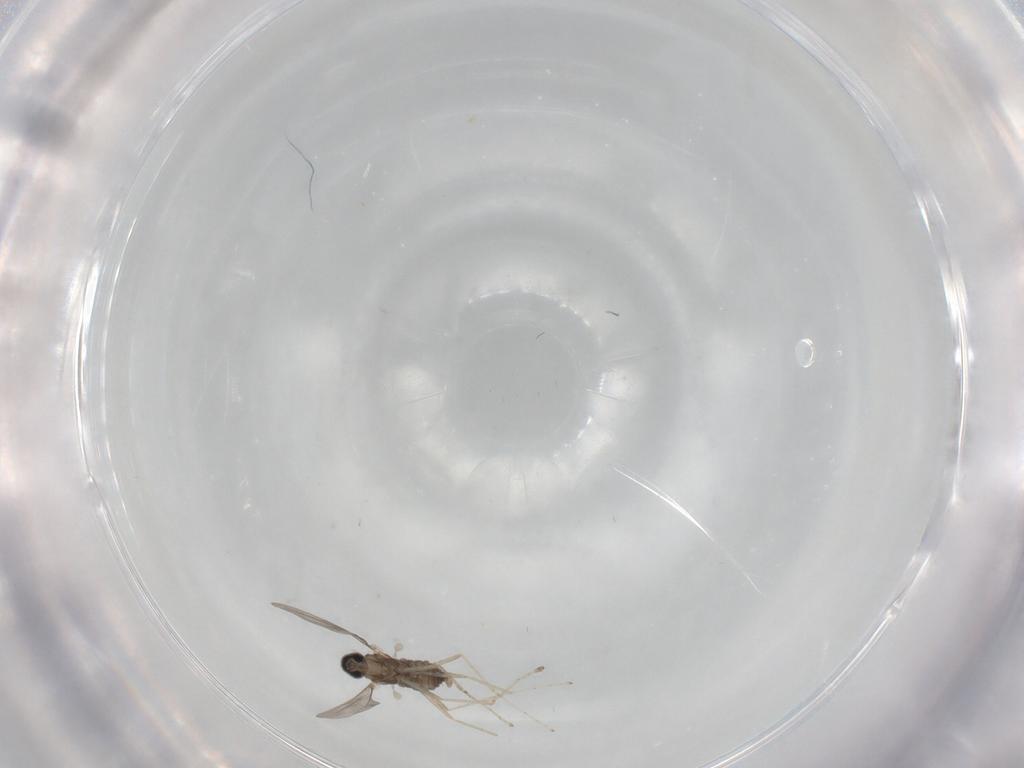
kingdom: Animalia
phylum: Arthropoda
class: Insecta
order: Diptera
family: Cecidomyiidae
